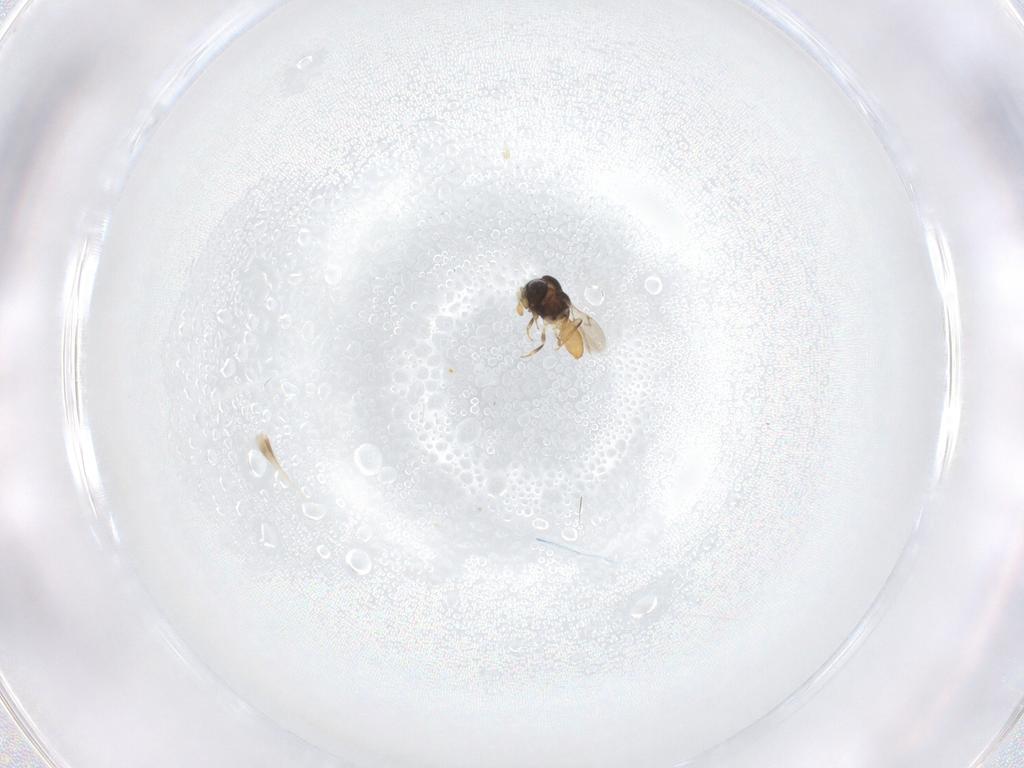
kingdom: Animalia
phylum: Arthropoda
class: Insecta
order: Hymenoptera
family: Scelionidae
